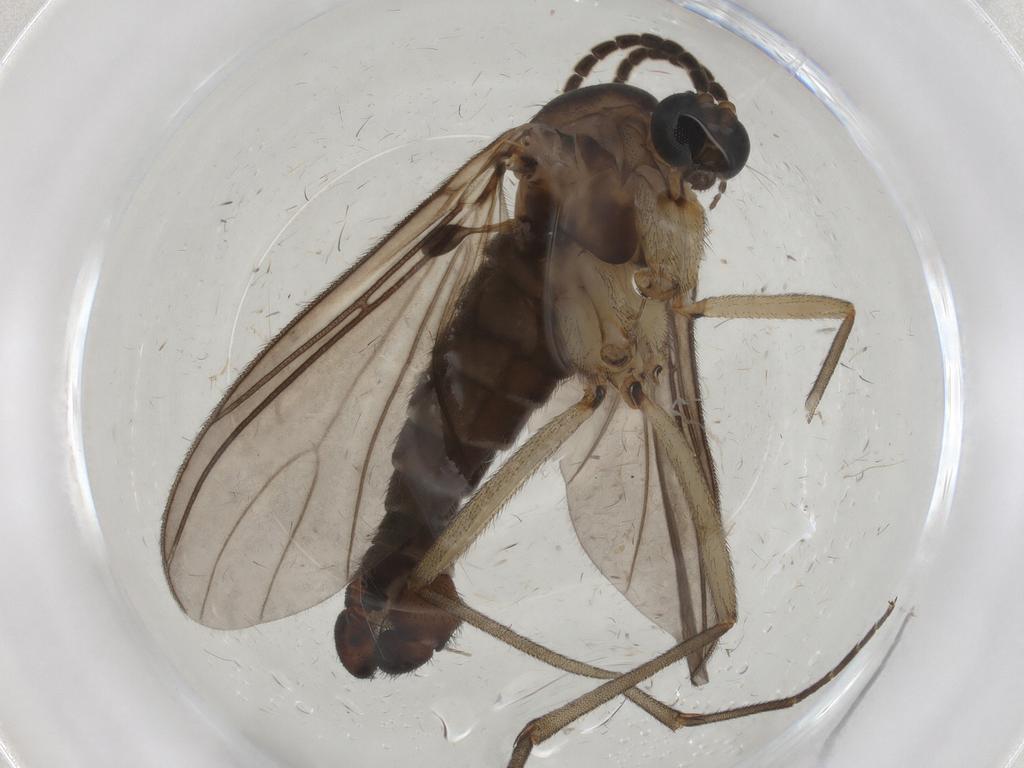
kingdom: Animalia
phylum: Arthropoda
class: Insecta
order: Diptera
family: Sciaridae
